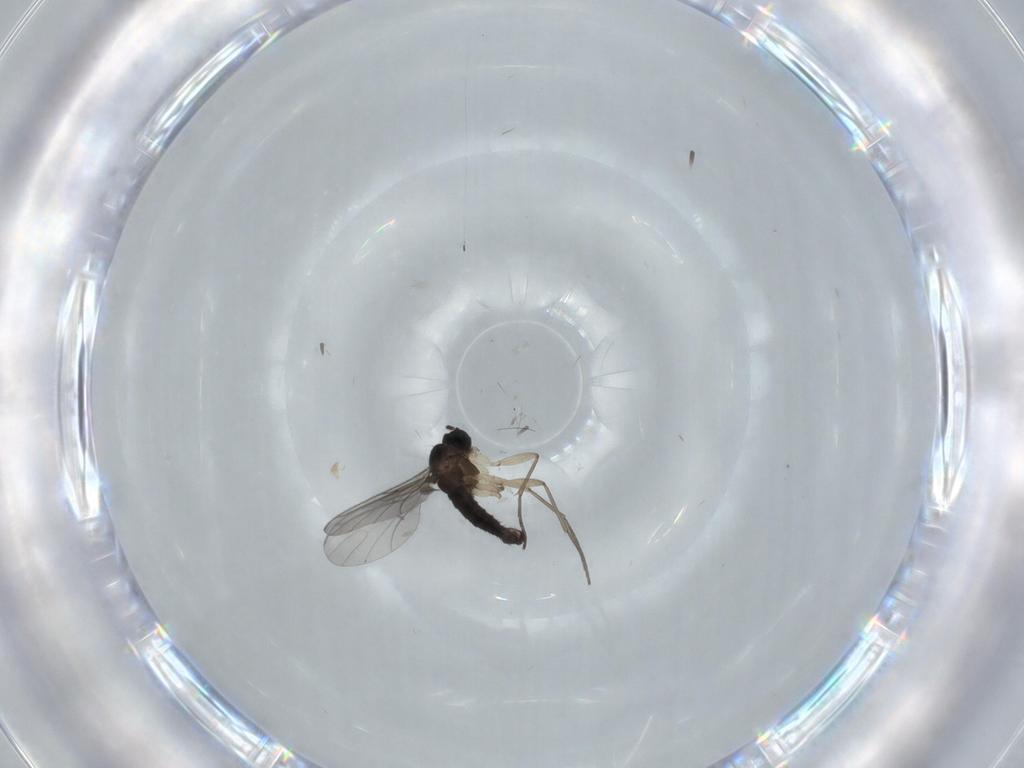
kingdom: Animalia
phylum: Arthropoda
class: Insecta
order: Diptera
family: Sciaridae
